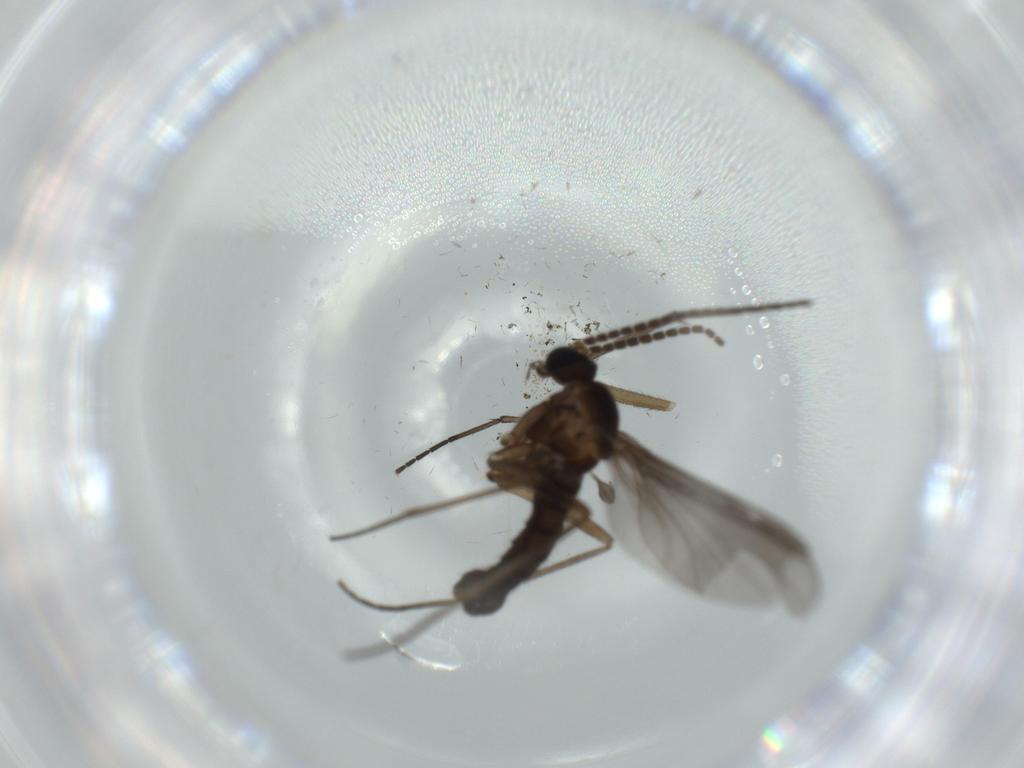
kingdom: Animalia
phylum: Arthropoda
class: Insecta
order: Diptera
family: Sciaridae
